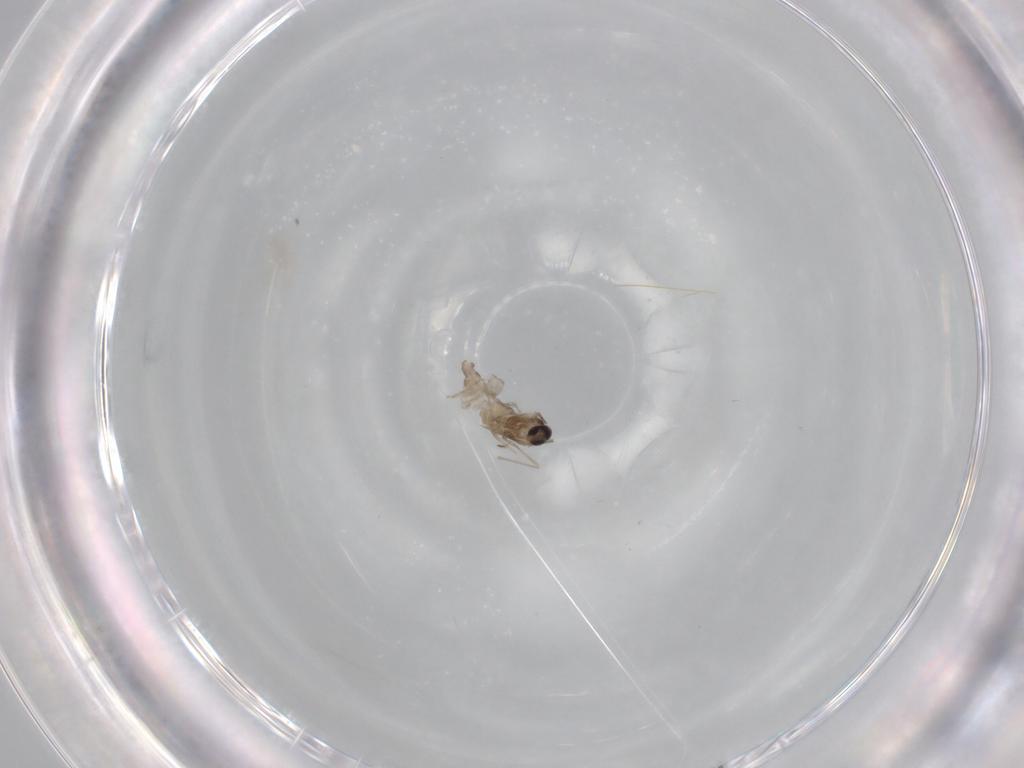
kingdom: Animalia
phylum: Arthropoda
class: Insecta
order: Diptera
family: Cecidomyiidae
